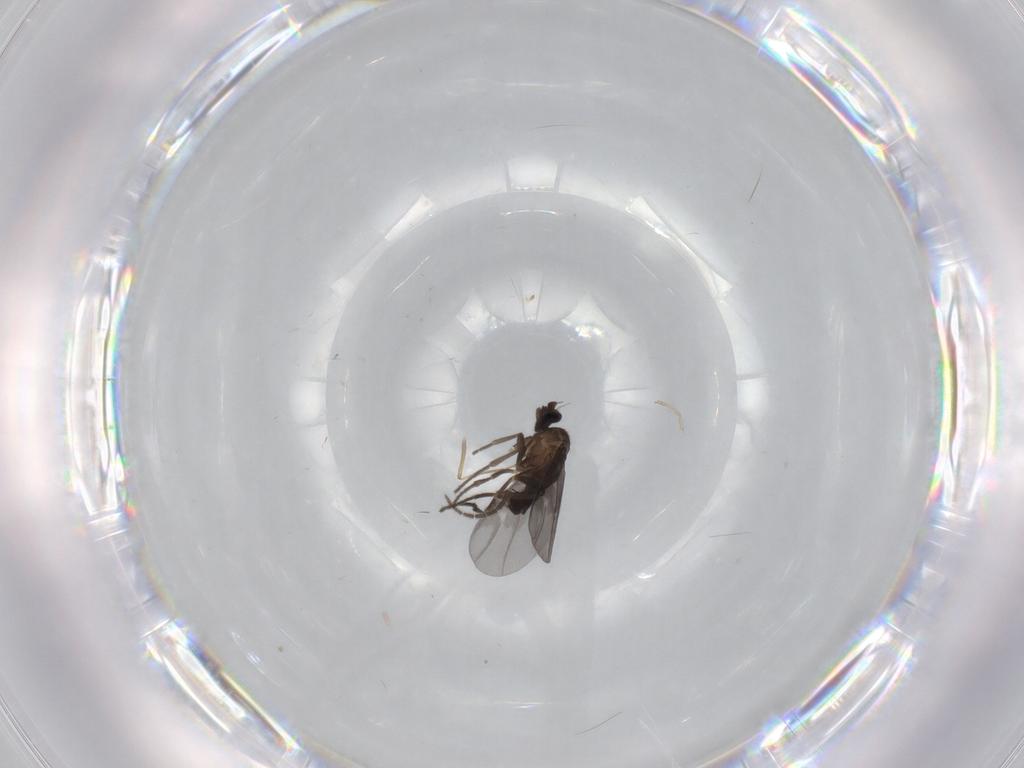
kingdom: Animalia
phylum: Arthropoda
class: Insecta
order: Diptera
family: Phoridae
